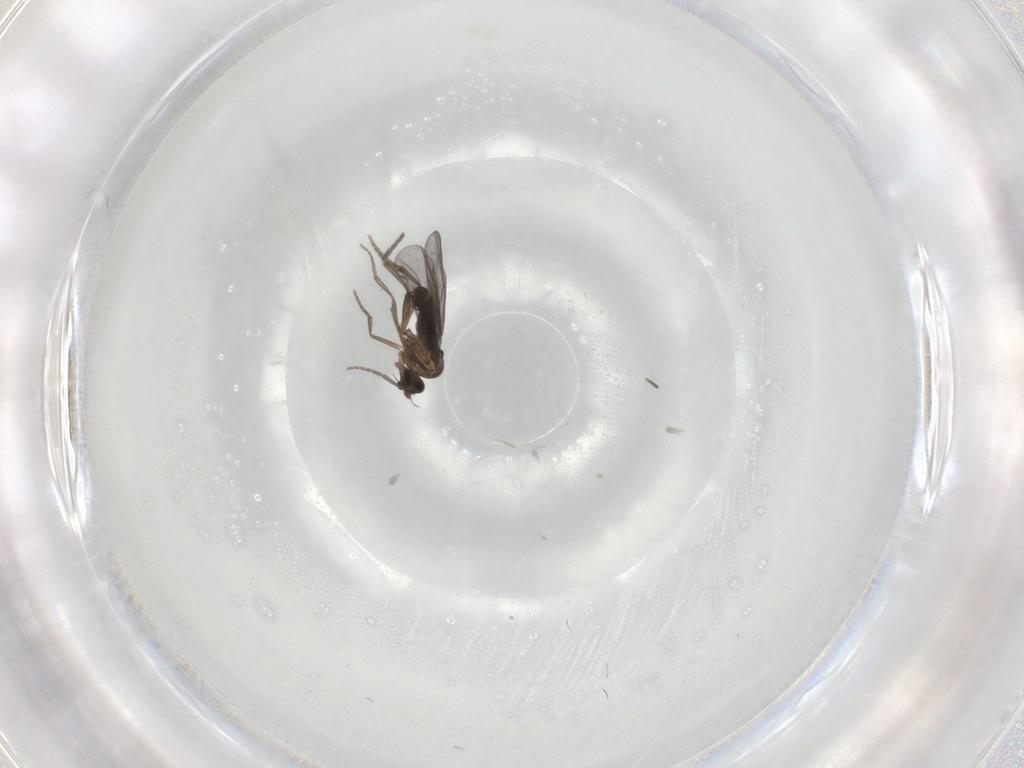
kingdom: Animalia
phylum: Arthropoda
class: Insecta
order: Diptera
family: Phoridae
